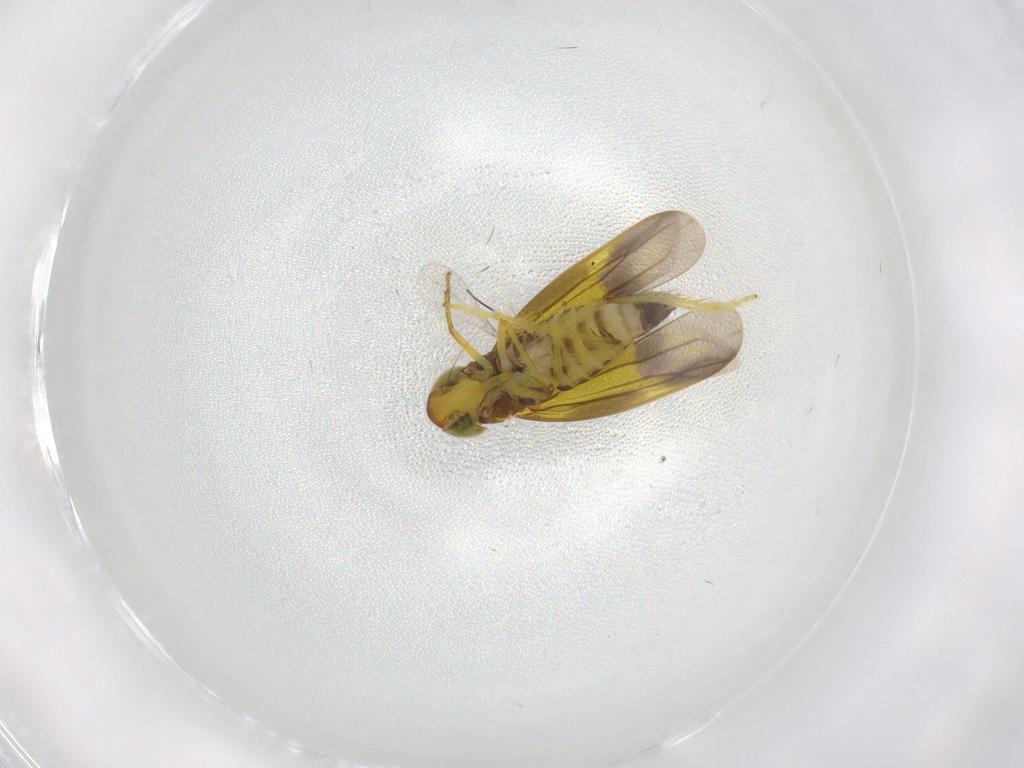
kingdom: Animalia
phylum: Arthropoda
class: Insecta
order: Hemiptera
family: Cicadellidae
